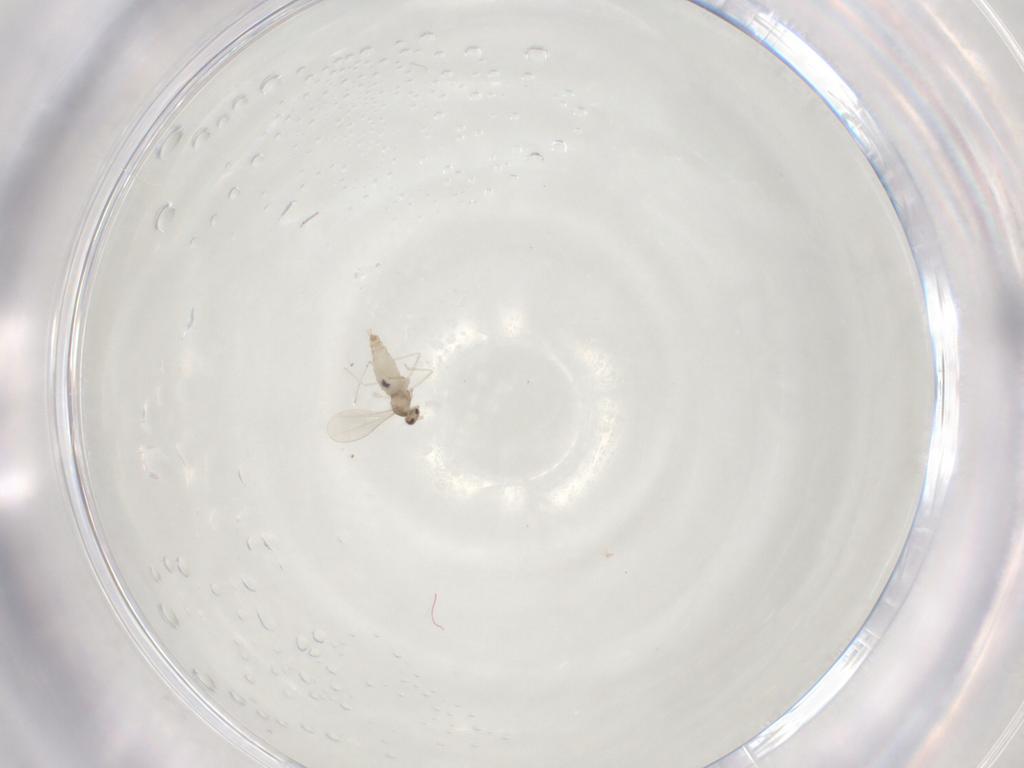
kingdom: Animalia
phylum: Arthropoda
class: Insecta
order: Diptera
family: Cecidomyiidae
